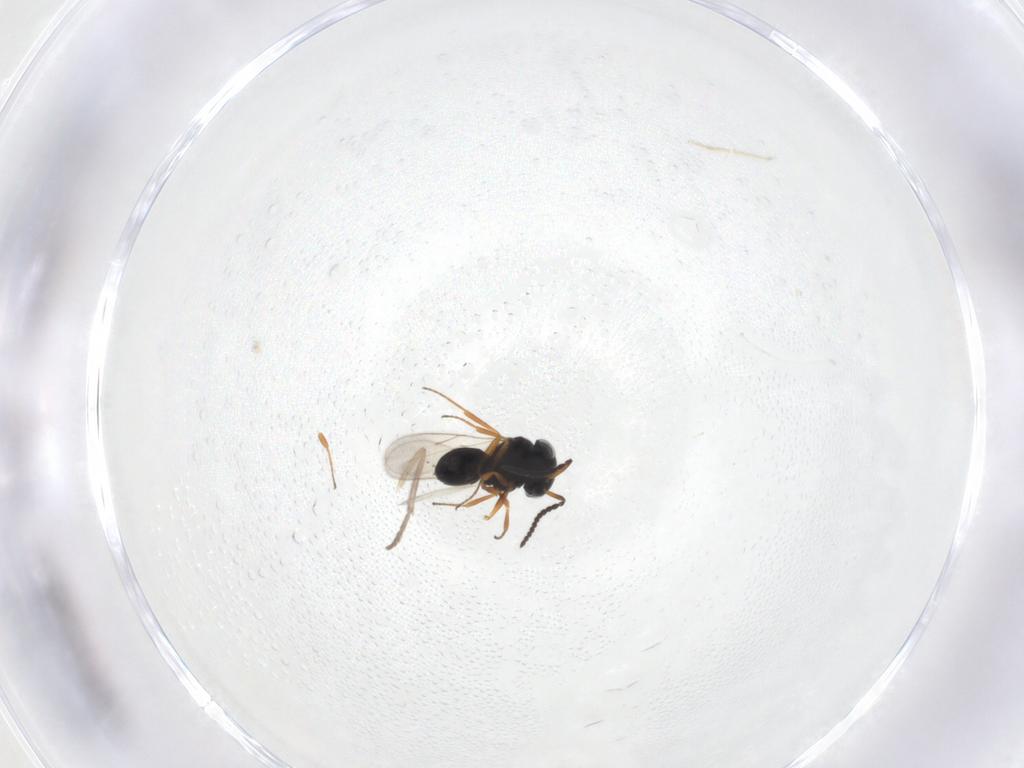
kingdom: Animalia
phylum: Arthropoda
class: Insecta
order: Hymenoptera
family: Scelionidae
